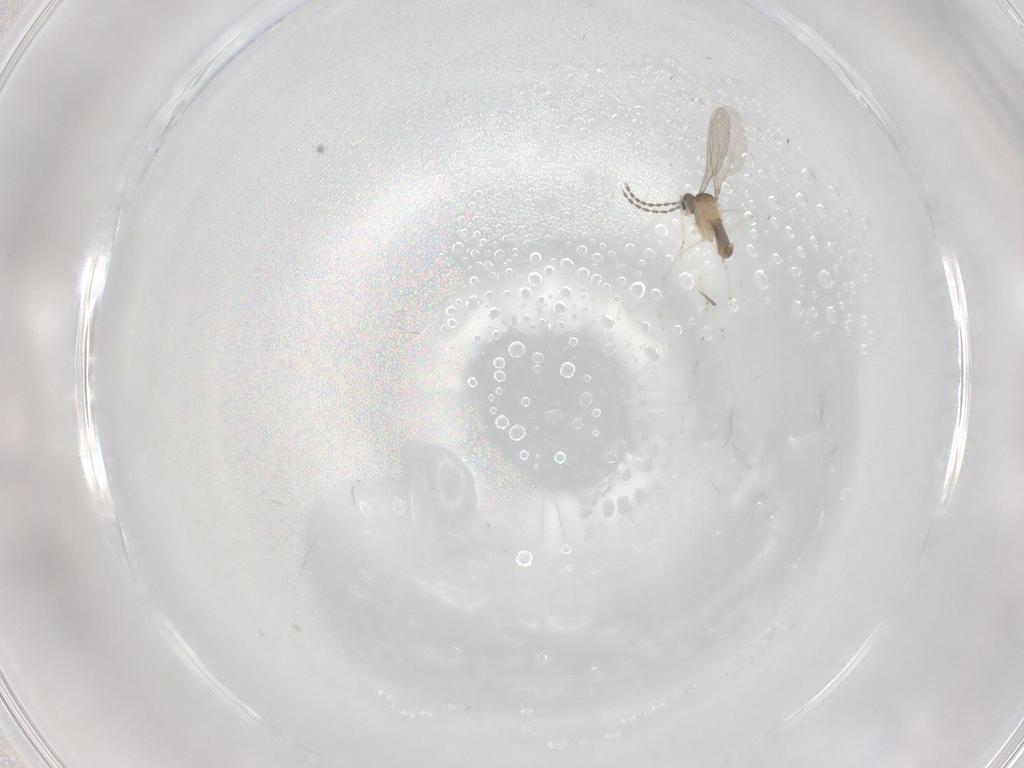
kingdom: Animalia
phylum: Arthropoda
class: Insecta
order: Diptera
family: Cecidomyiidae
